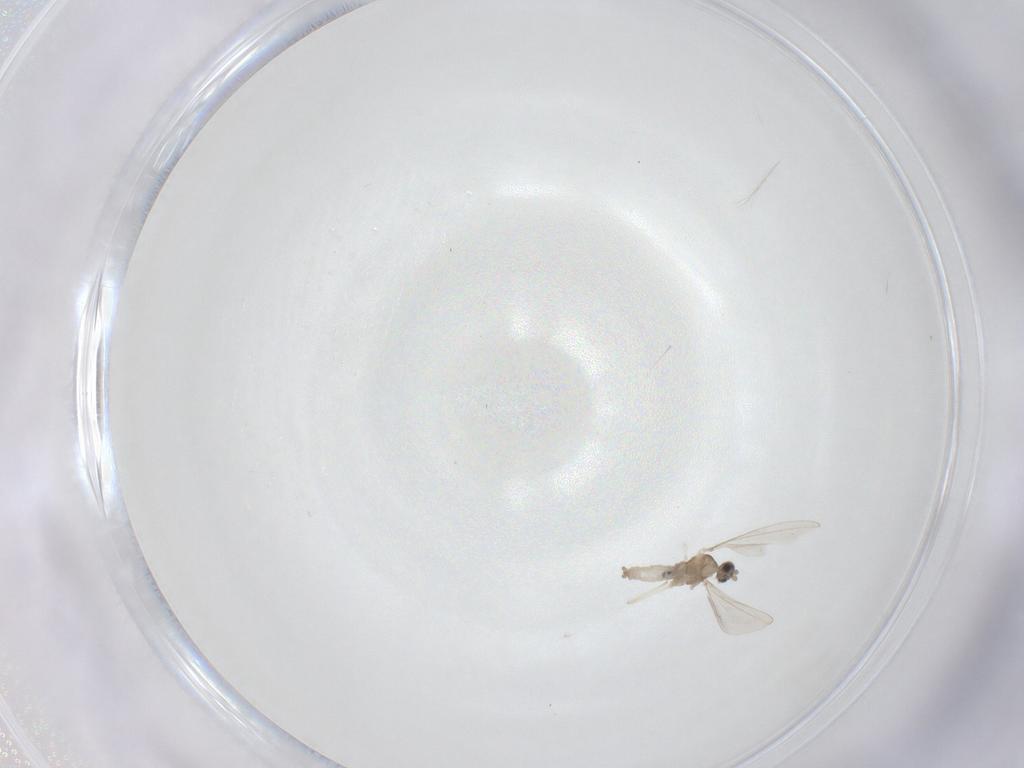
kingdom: Animalia
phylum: Arthropoda
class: Insecta
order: Diptera
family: Cecidomyiidae
